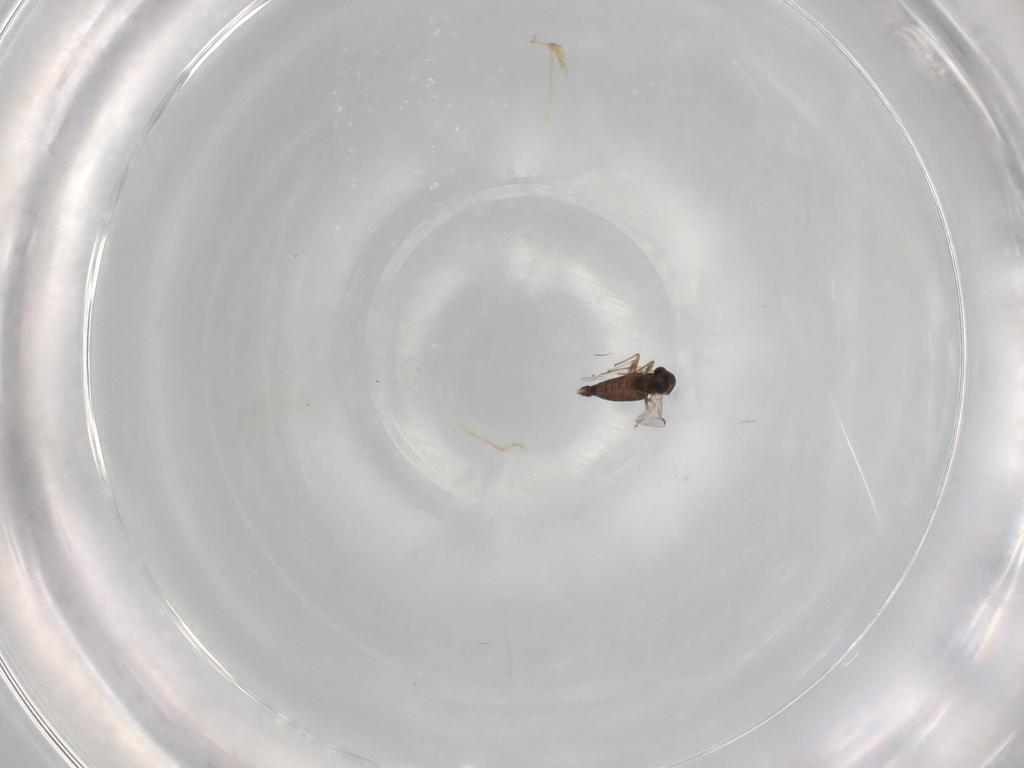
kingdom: Animalia
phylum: Arthropoda
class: Insecta
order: Diptera
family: Chironomidae
